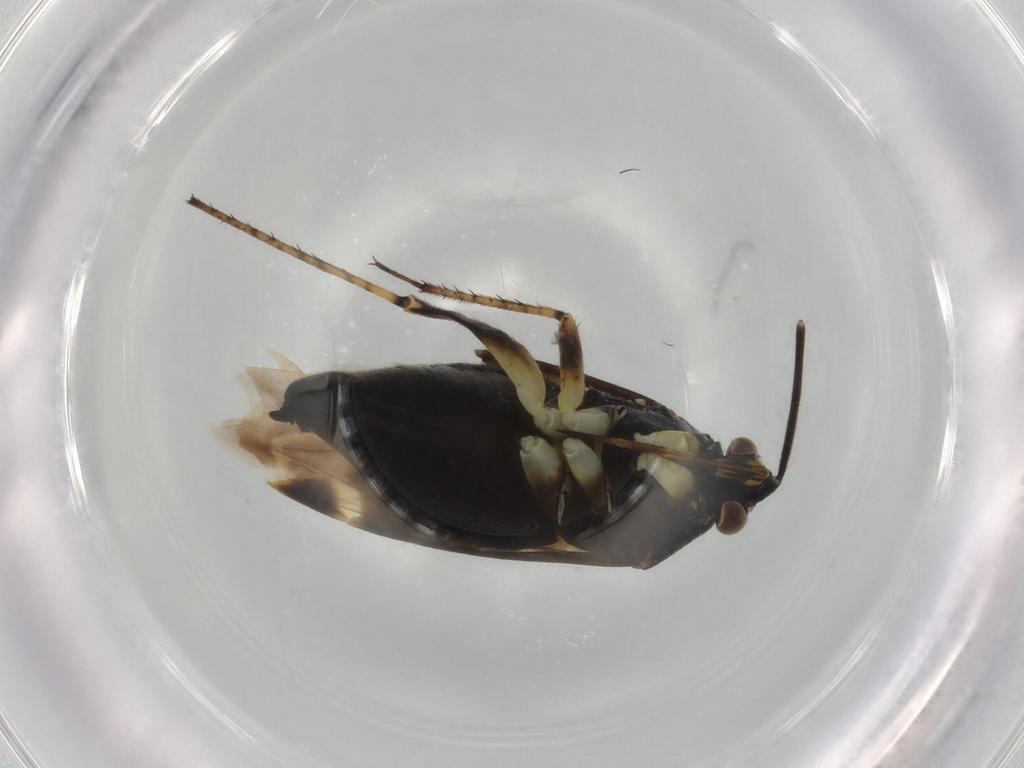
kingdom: Animalia
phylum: Arthropoda
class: Insecta
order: Hemiptera
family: Miridae
